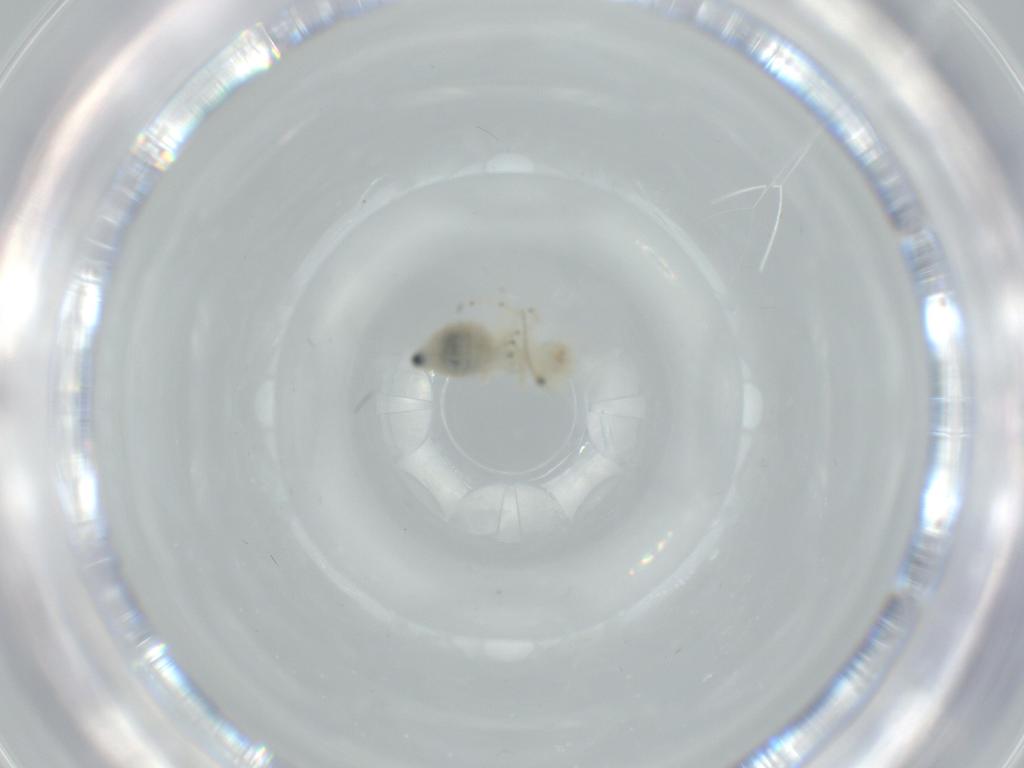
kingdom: Animalia
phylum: Arthropoda
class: Insecta
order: Psocodea
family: Caeciliusidae
